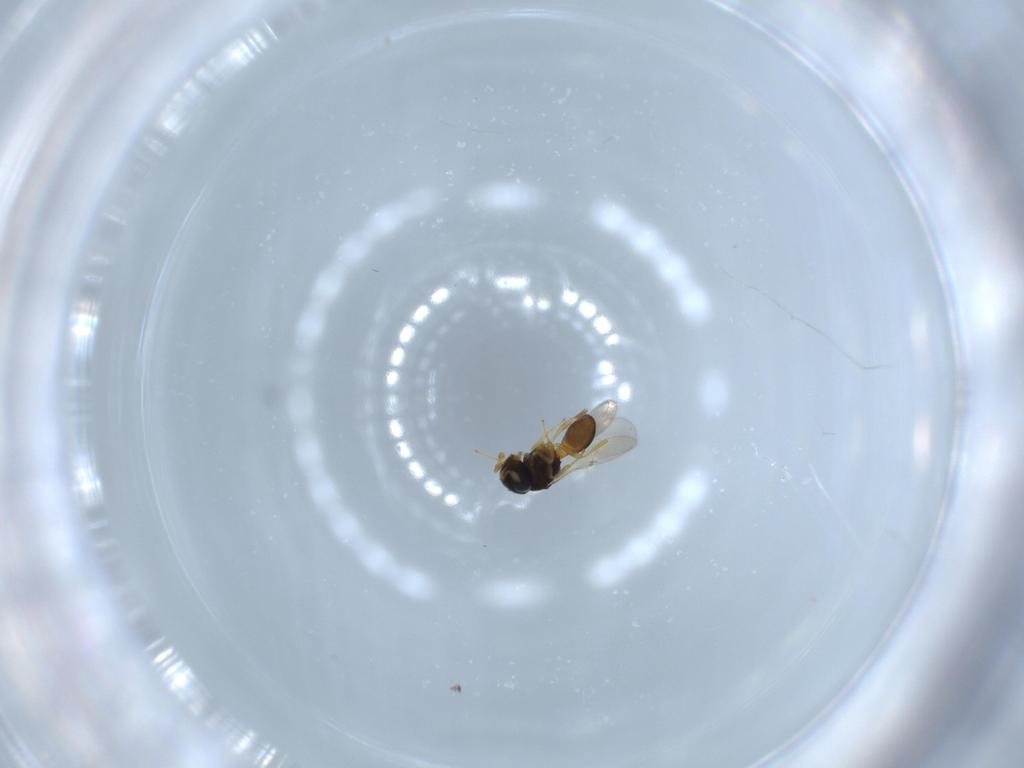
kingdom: Animalia
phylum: Arthropoda
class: Insecta
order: Hymenoptera
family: Scelionidae
